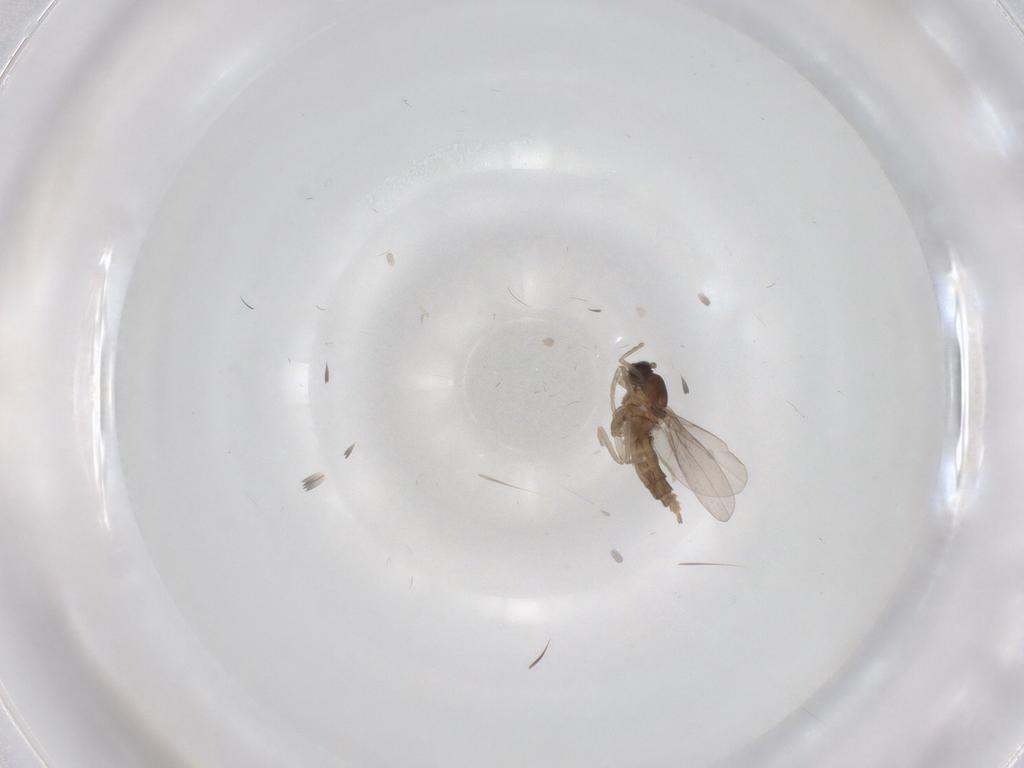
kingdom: Animalia
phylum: Arthropoda
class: Insecta
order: Diptera
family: Cecidomyiidae
